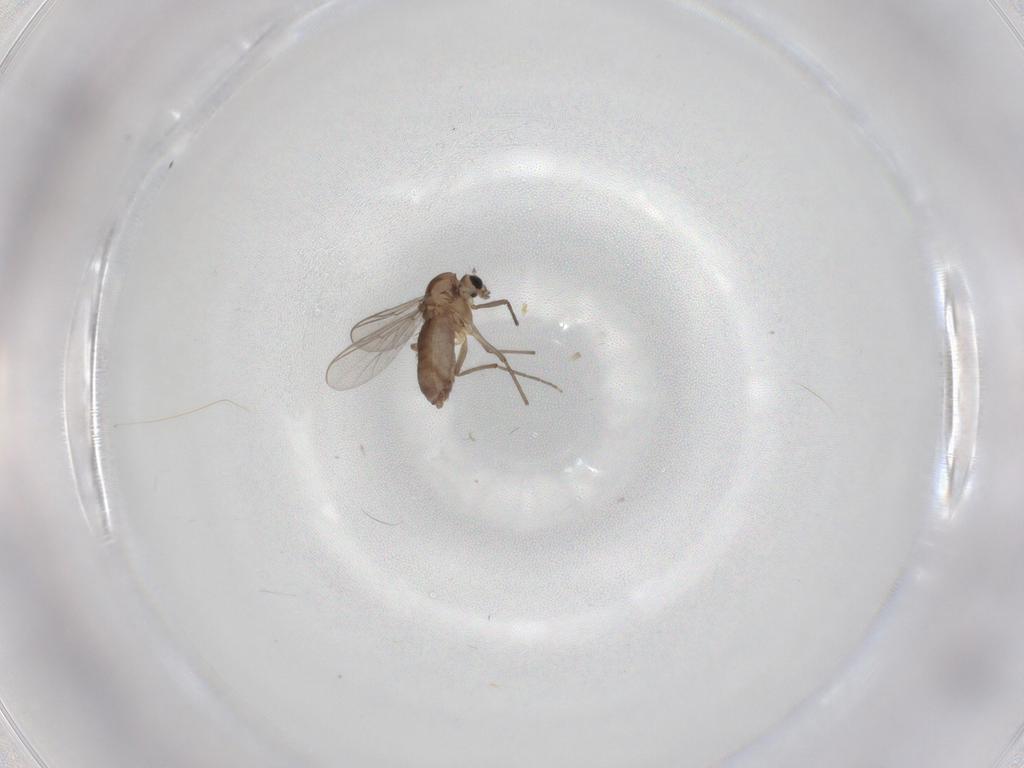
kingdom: Animalia
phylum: Arthropoda
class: Insecta
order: Diptera
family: Chironomidae
